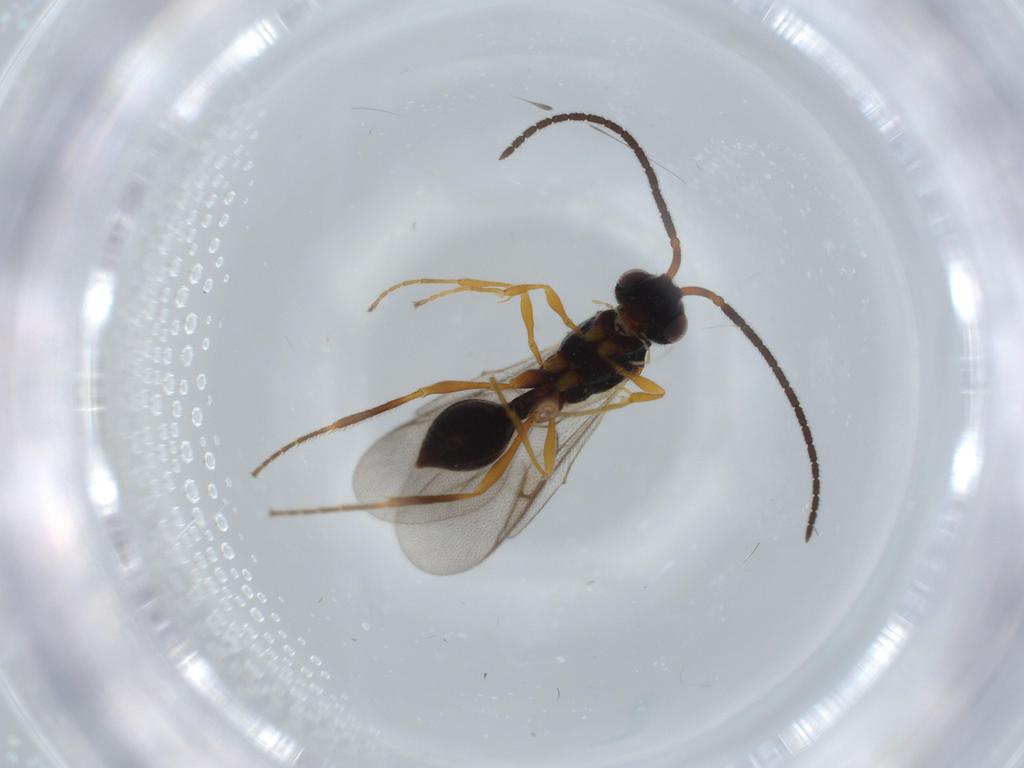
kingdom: Animalia
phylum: Arthropoda
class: Insecta
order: Hymenoptera
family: Diapriidae
